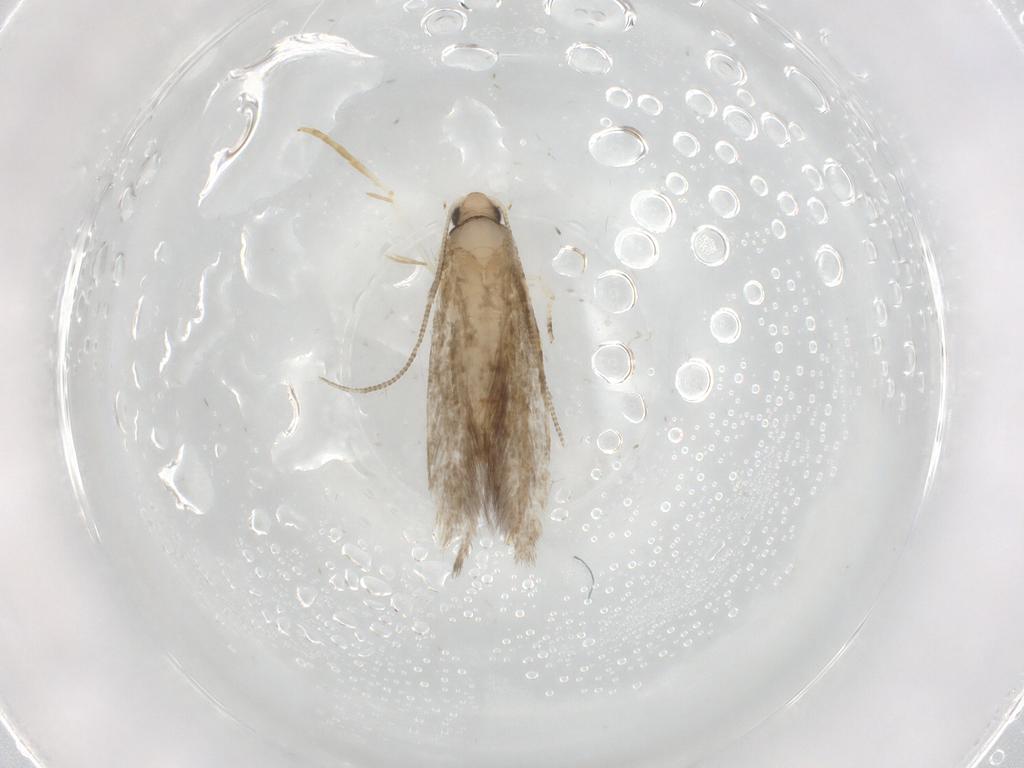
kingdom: Animalia
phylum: Arthropoda
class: Insecta
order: Lepidoptera
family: Tineidae
